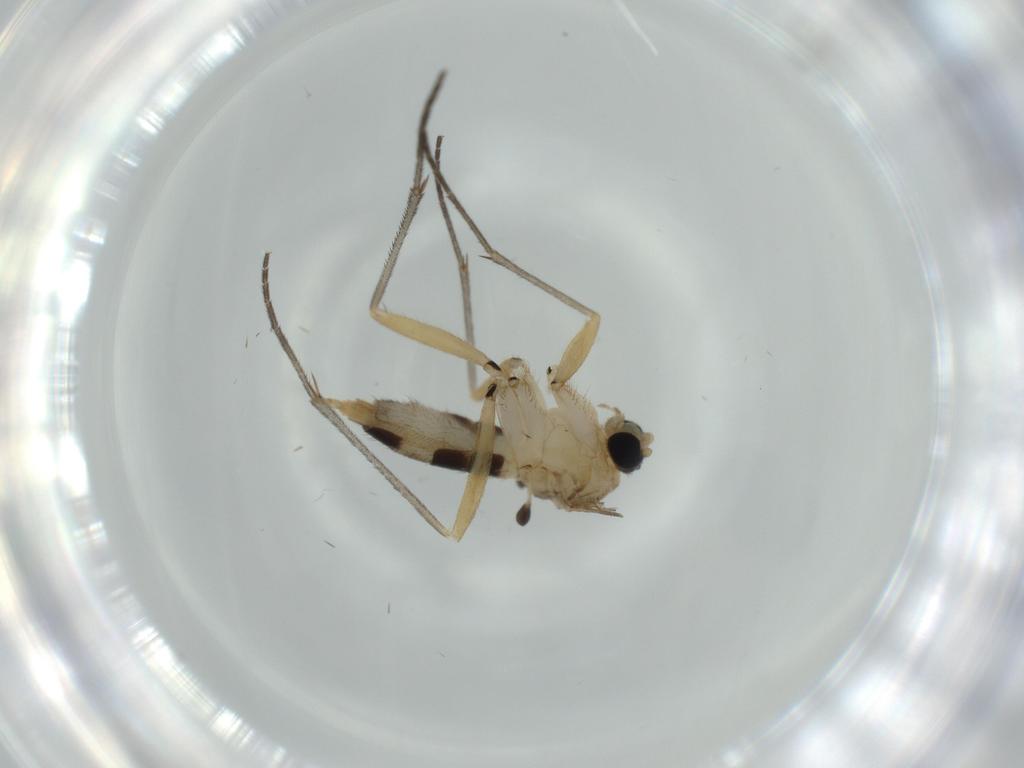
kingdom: Animalia
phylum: Arthropoda
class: Insecta
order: Diptera
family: Sciaridae
